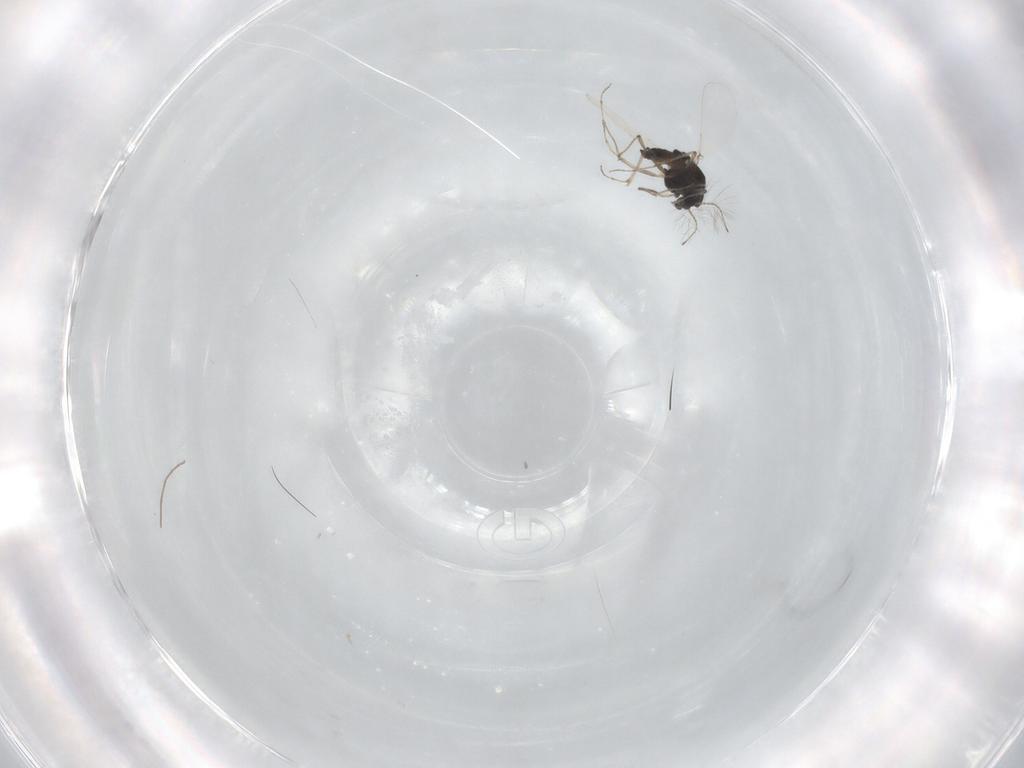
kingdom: Animalia
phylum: Arthropoda
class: Insecta
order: Diptera
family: Chironomidae
